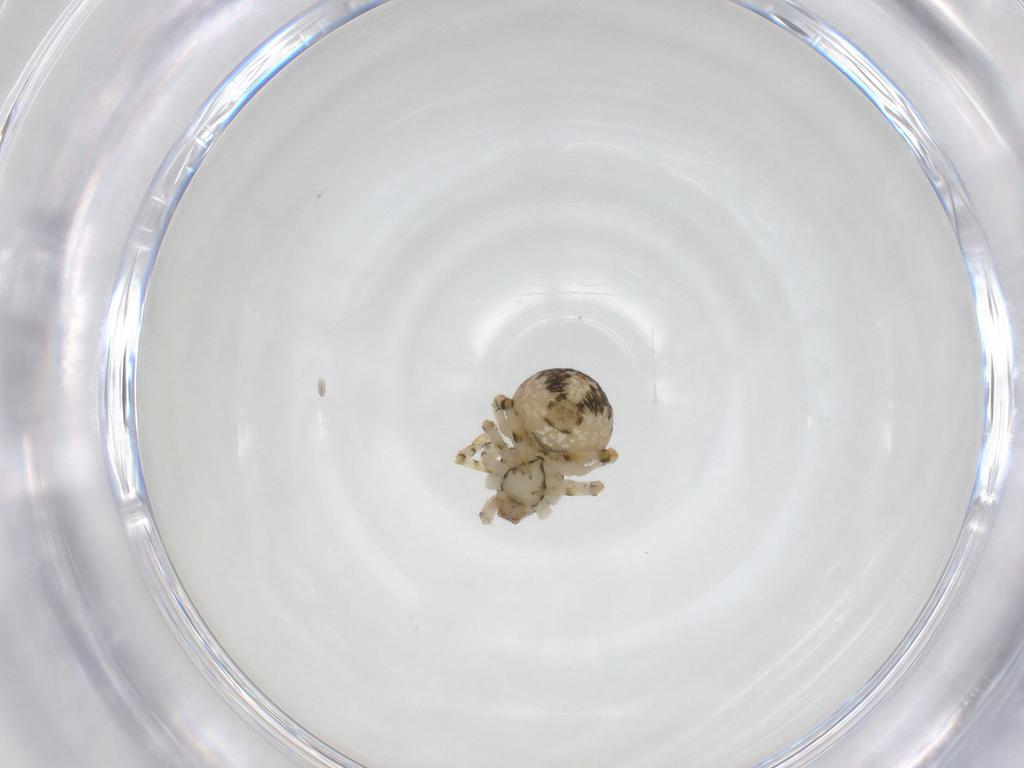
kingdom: Animalia
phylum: Arthropoda
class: Arachnida
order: Araneae
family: Theridiidae
